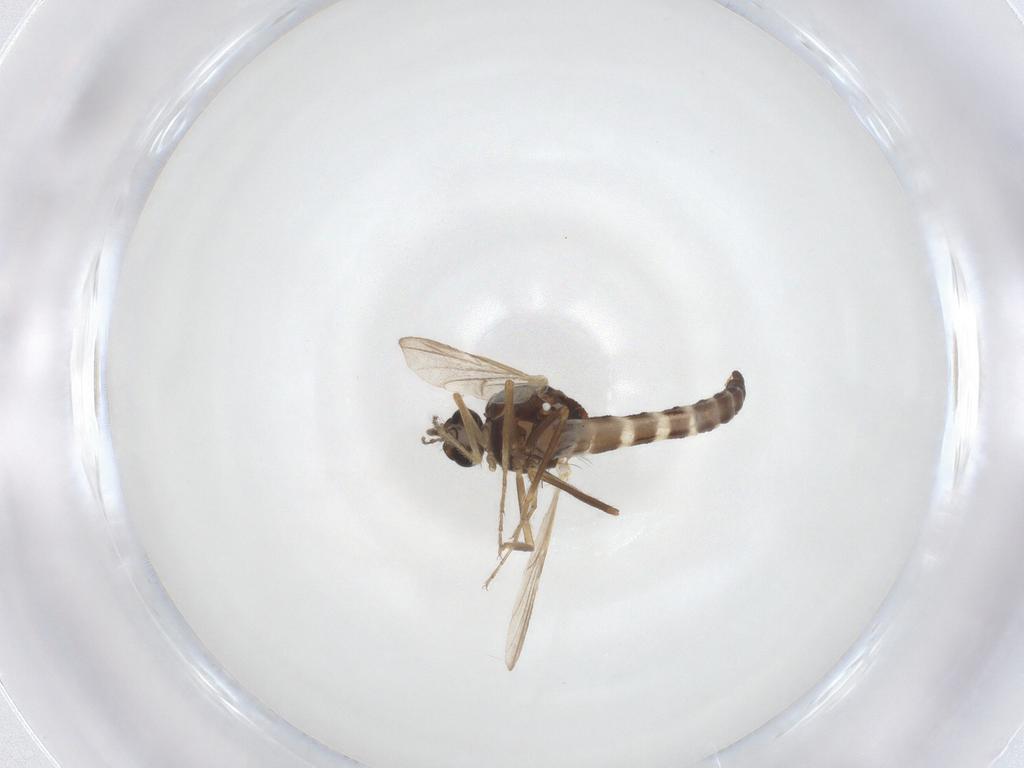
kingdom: Animalia
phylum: Arthropoda
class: Insecta
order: Diptera
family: Ceratopogonidae
